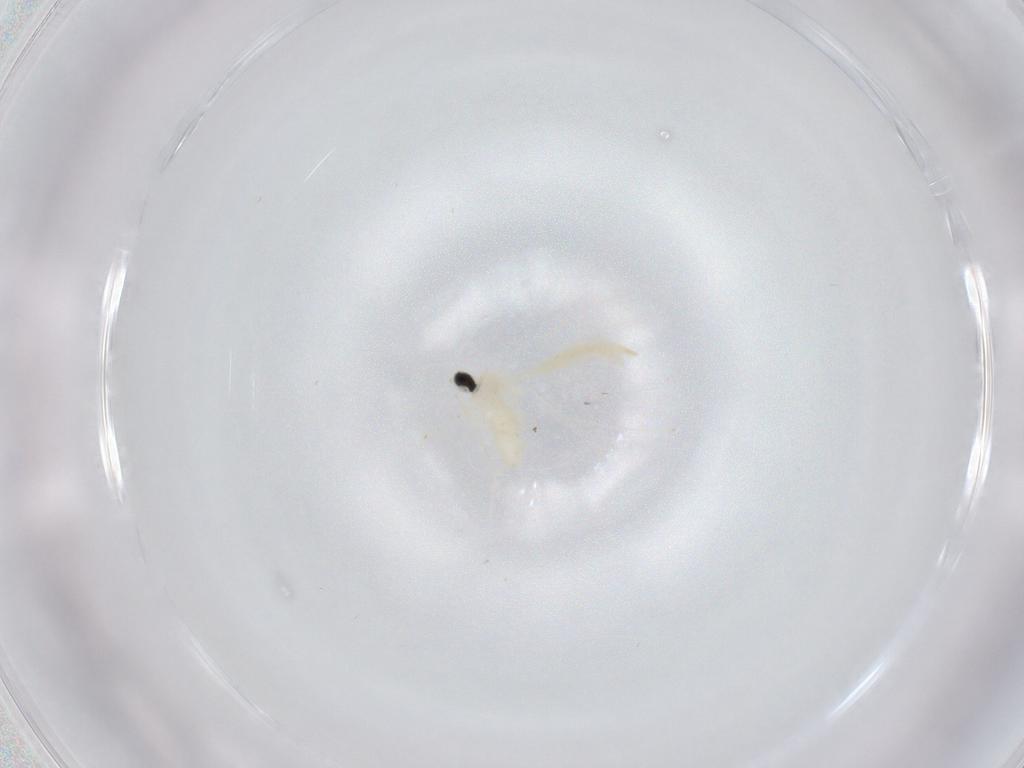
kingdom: Animalia
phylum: Arthropoda
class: Insecta
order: Diptera
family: Cecidomyiidae
